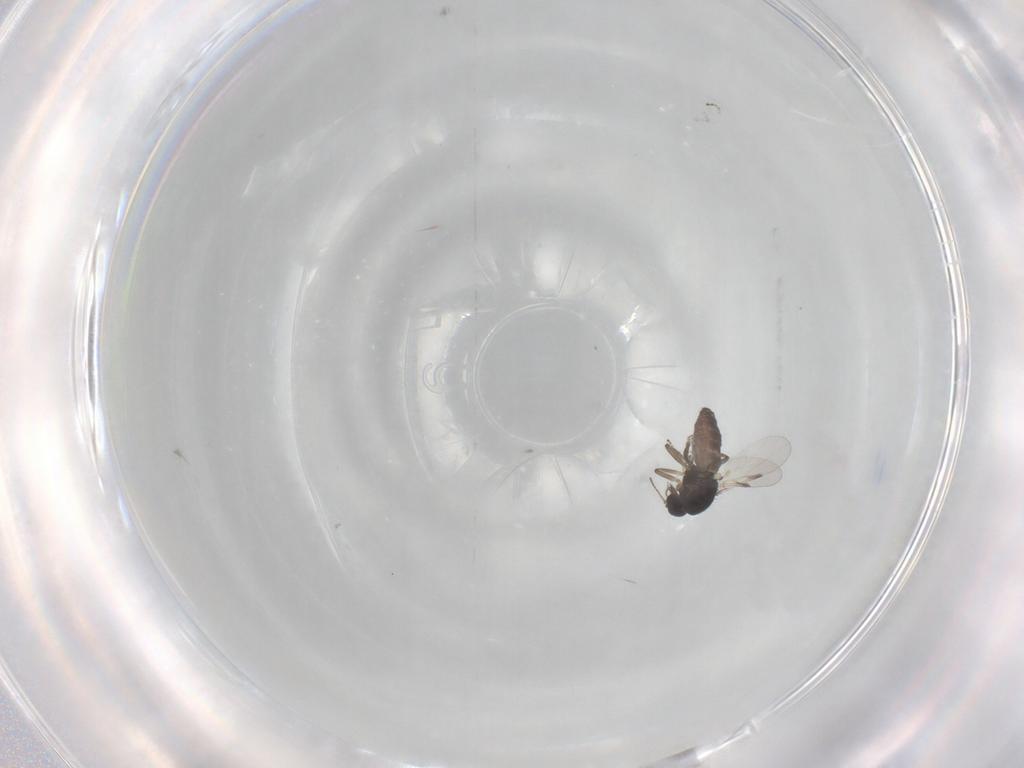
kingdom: Animalia
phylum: Arthropoda
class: Insecta
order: Diptera
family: Ceratopogonidae
